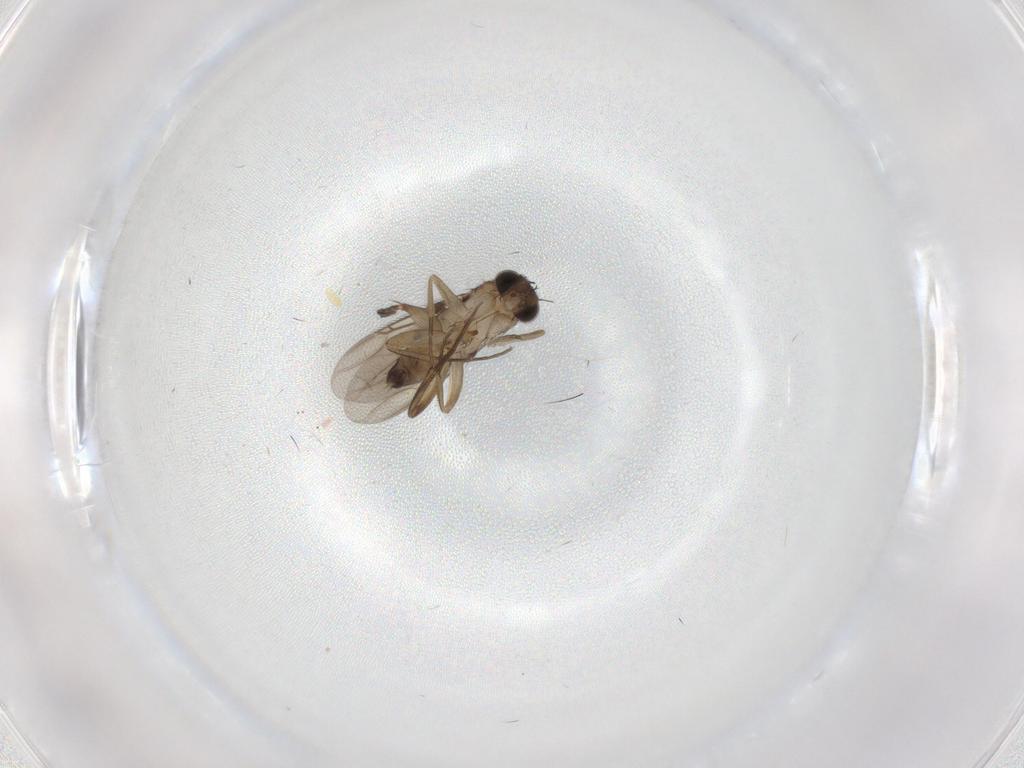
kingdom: Animalia
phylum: Arthropoda
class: Insecta
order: Diptera
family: Phoridae
